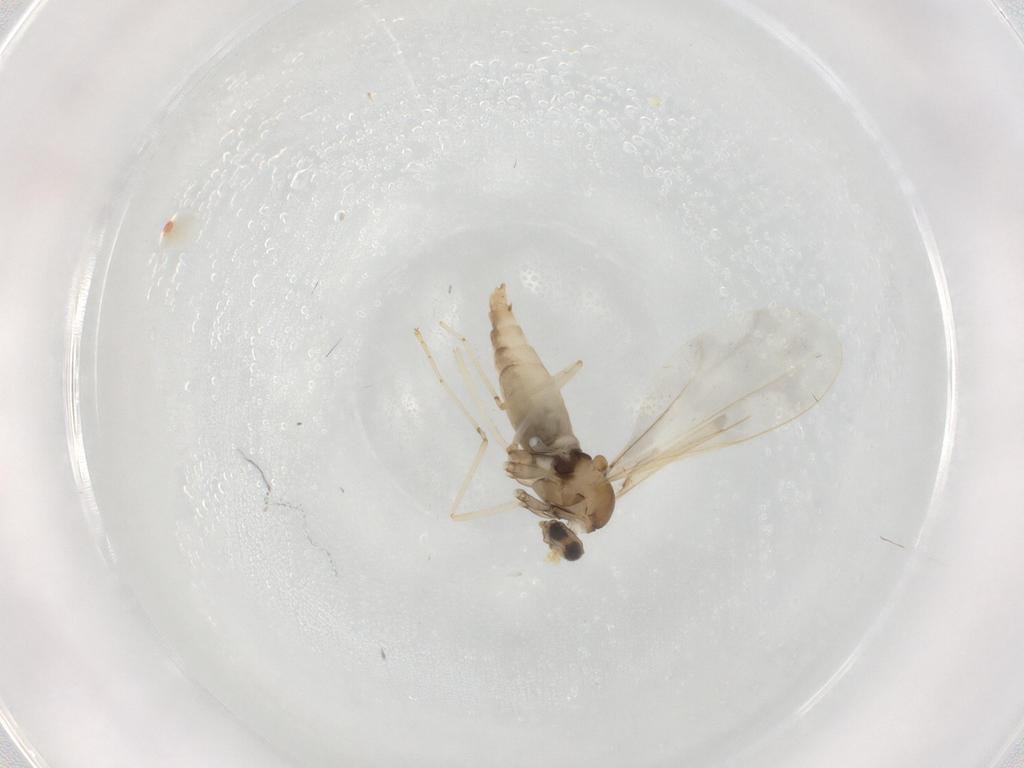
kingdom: Animalia
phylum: Arthropoda
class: Insecta
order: Diptera
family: Cecidomyiidae
